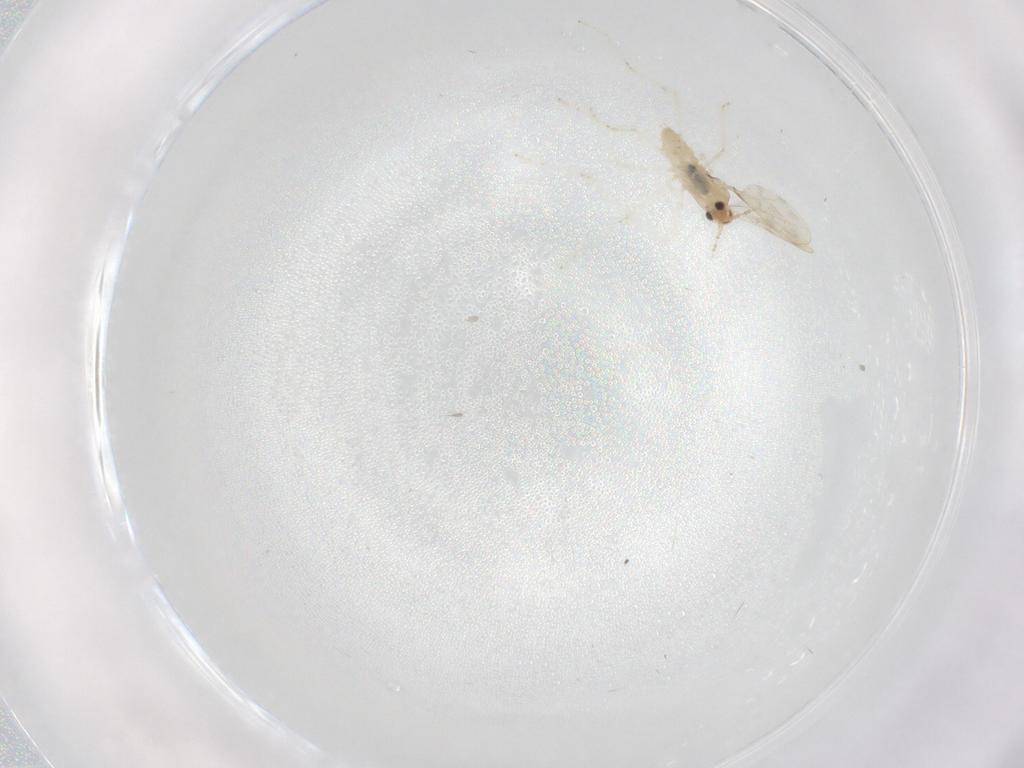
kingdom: Animalia
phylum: Arthropoda
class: Insecta
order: Diptera
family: Cecidomyiidae
